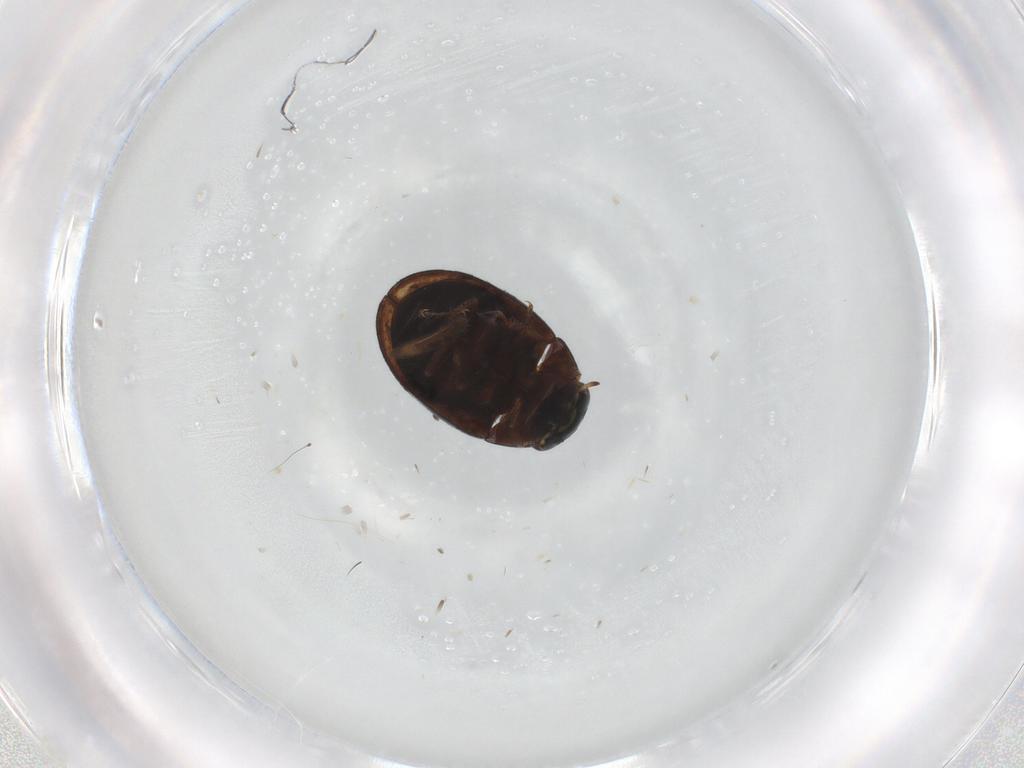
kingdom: Animalia
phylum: Arthropoda
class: Insecta
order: Coleoptera
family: Hydrophilidae
